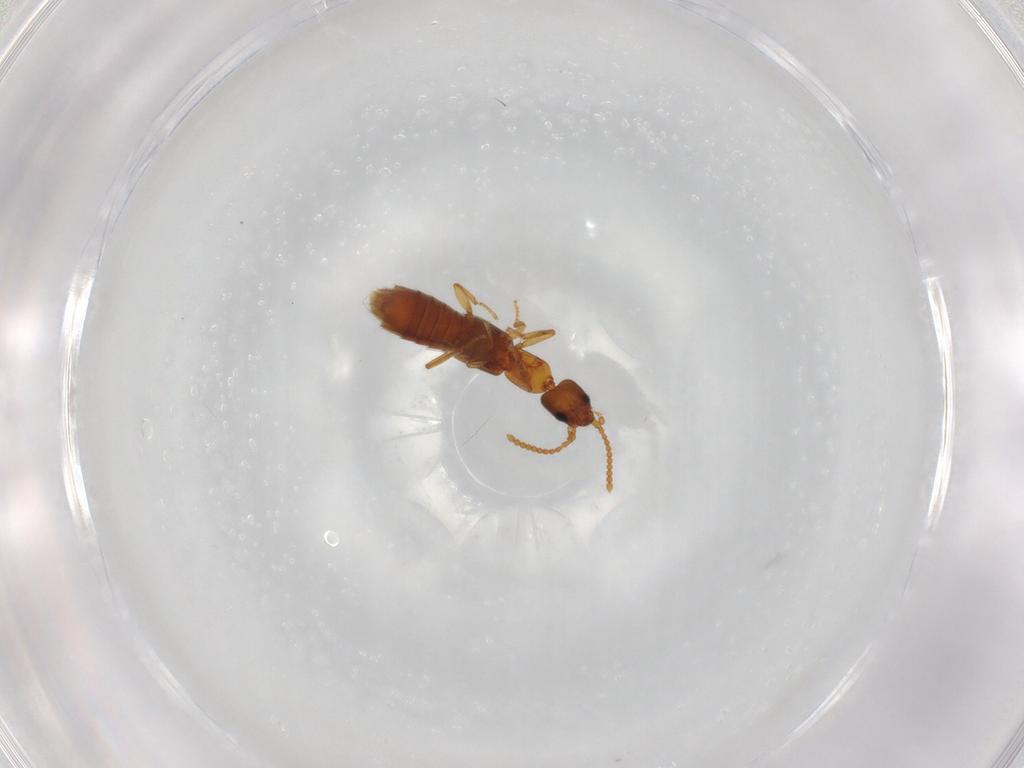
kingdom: Animalia
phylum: Arthropoda
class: Insecta
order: Coleoptera
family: Staphylinidae
